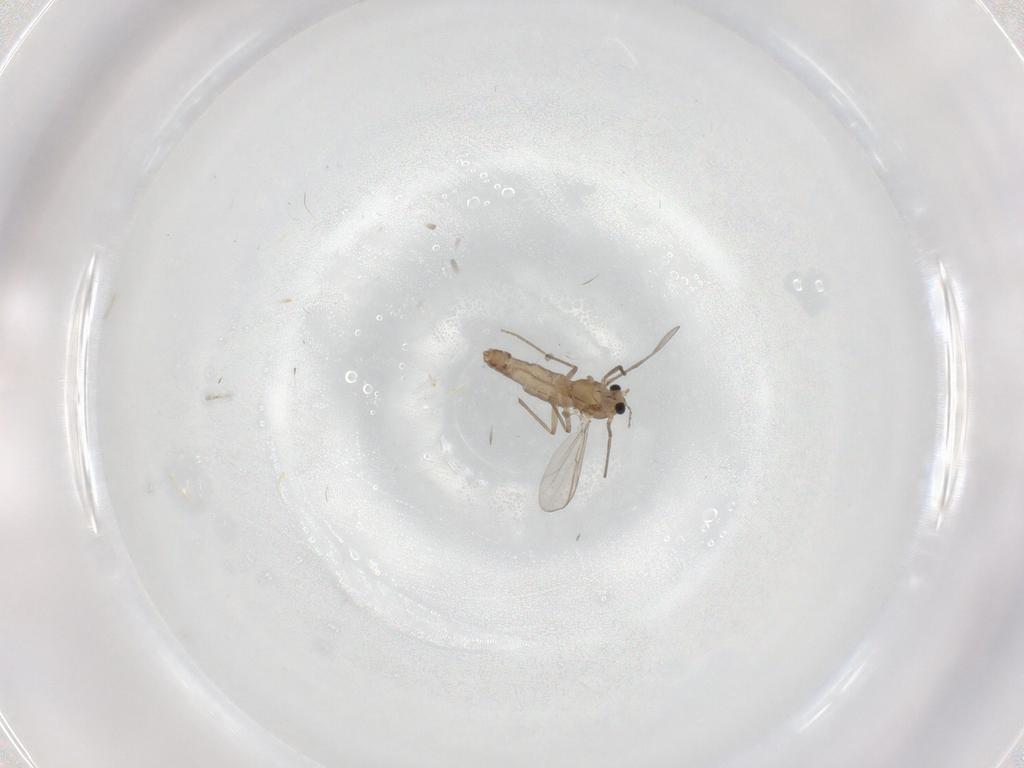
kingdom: Animalia
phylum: Arthropoda
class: Insecta
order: Diptera
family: Chironomidae
